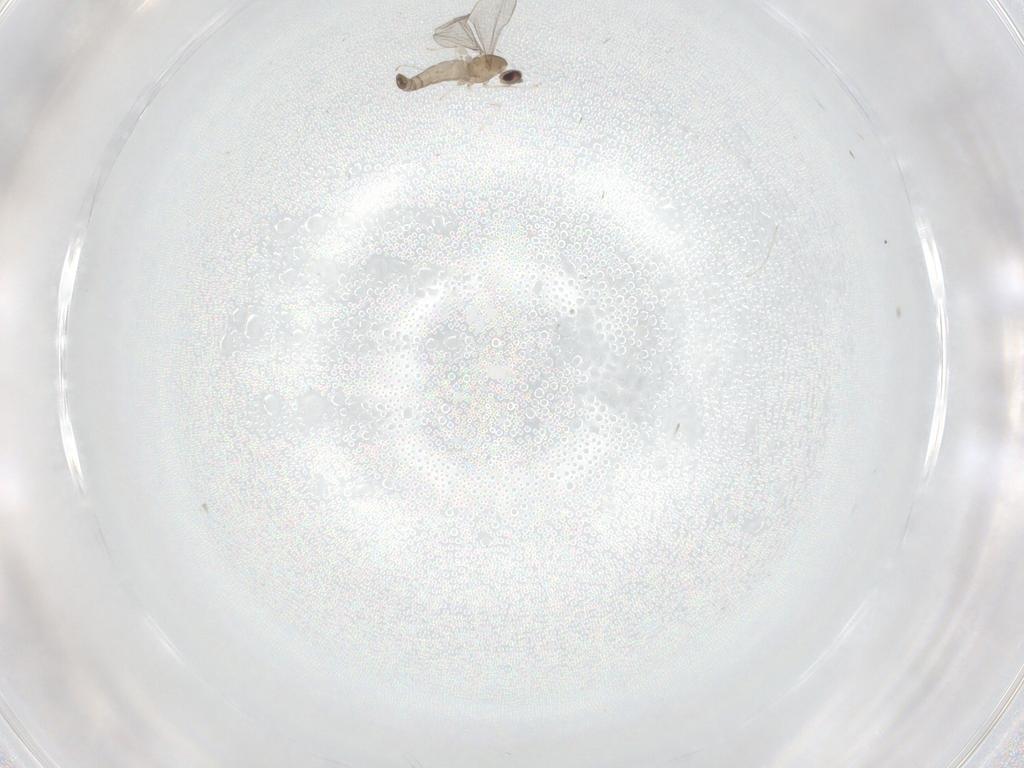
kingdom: Animalia
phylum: Arthropoda
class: Insecta
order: Diptera
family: Cecidomyiidae
